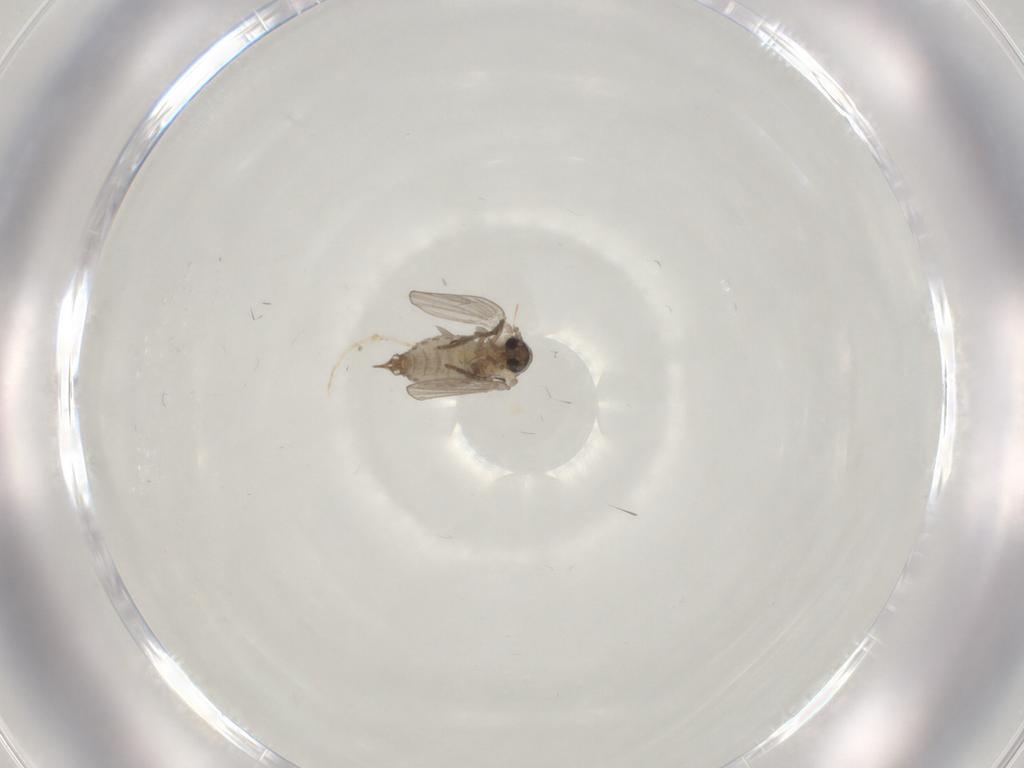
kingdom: Animalia
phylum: Arthropoda
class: Insecta
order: Diptera
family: Psychodidae
